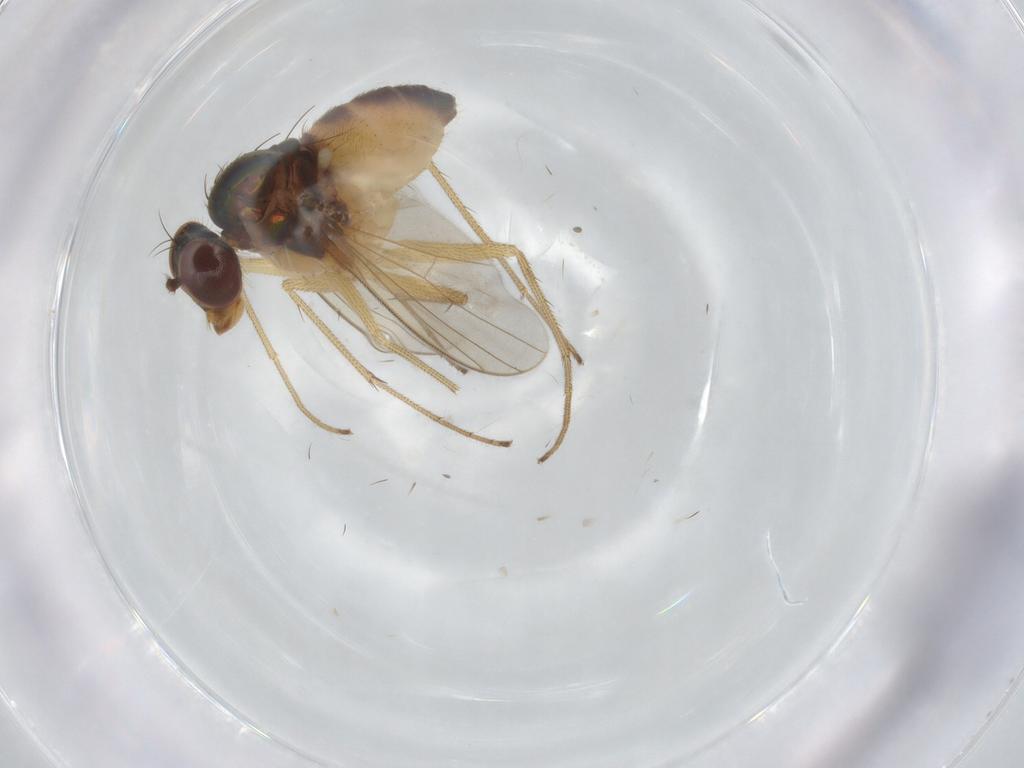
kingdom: Animalia
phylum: Arthropoda
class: Insecta
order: Diptera
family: Dolichopodidae
